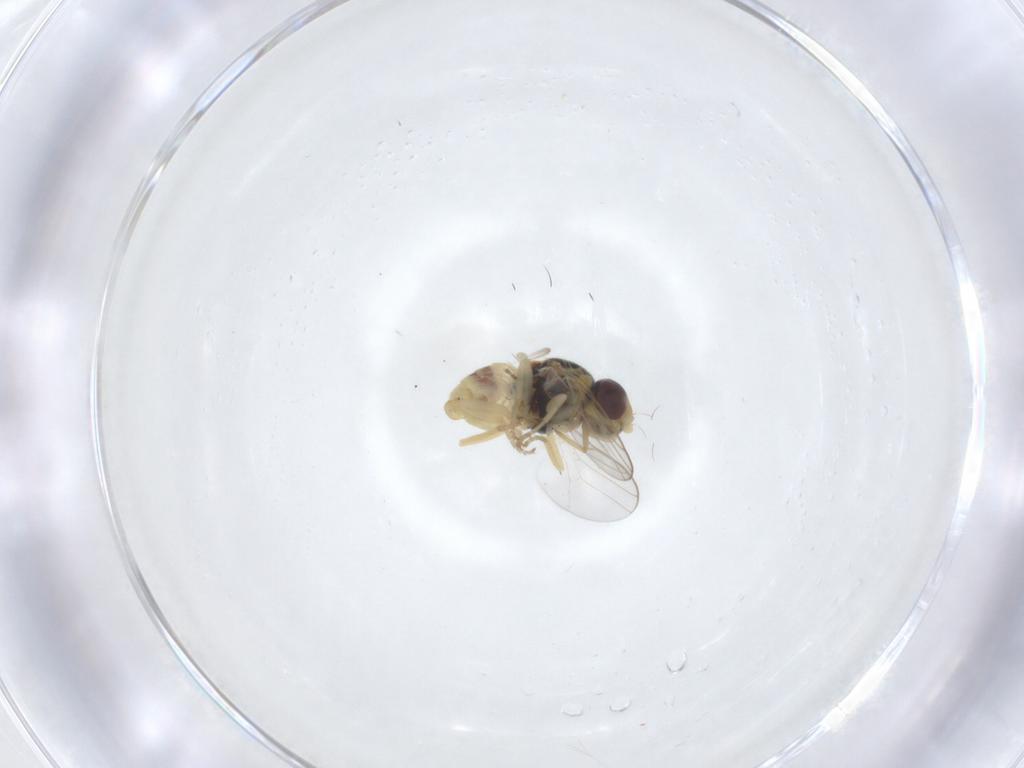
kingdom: Animalia
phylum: Arthropoda
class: Insecta
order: Diptera
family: Chloropidae
